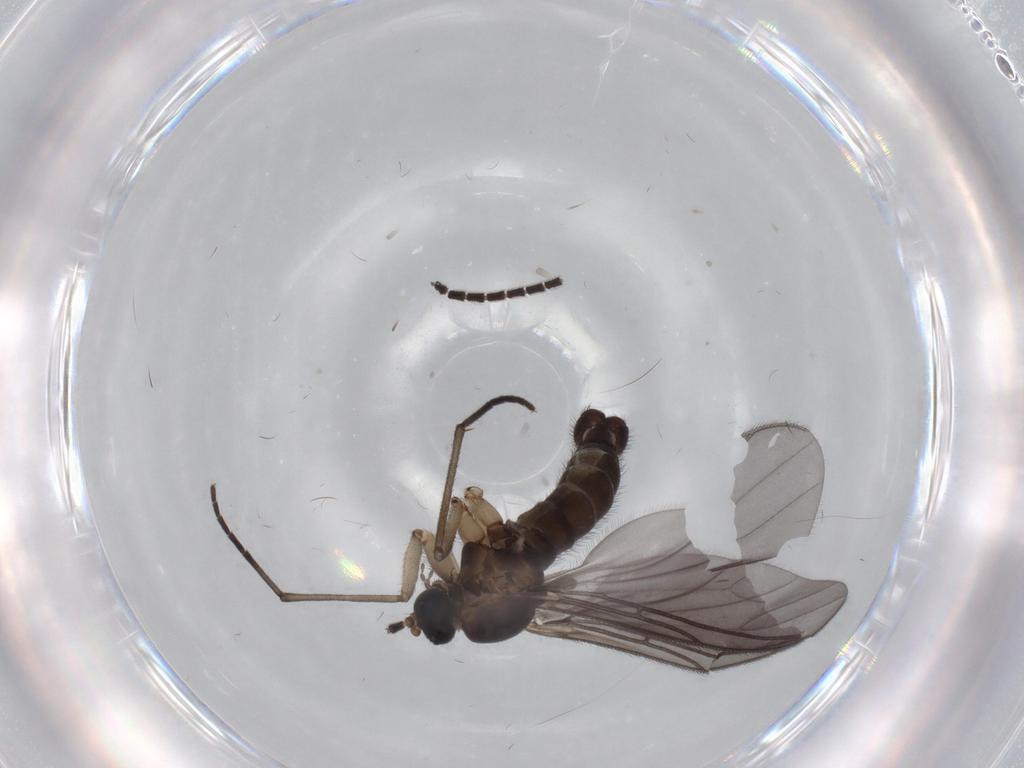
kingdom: Animalia
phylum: Arthropoda
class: Insecta
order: Diptera
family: Sciaridae
